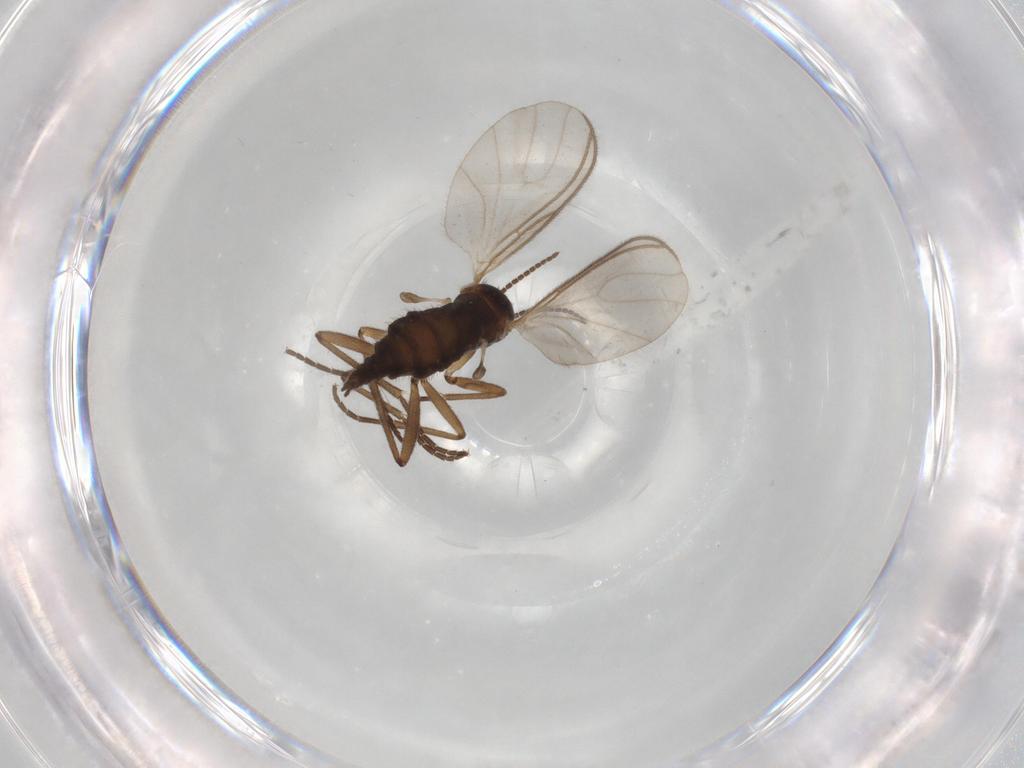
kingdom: Animalia
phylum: Arthropoda
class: Insecta
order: Diptera
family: Sciaridae
